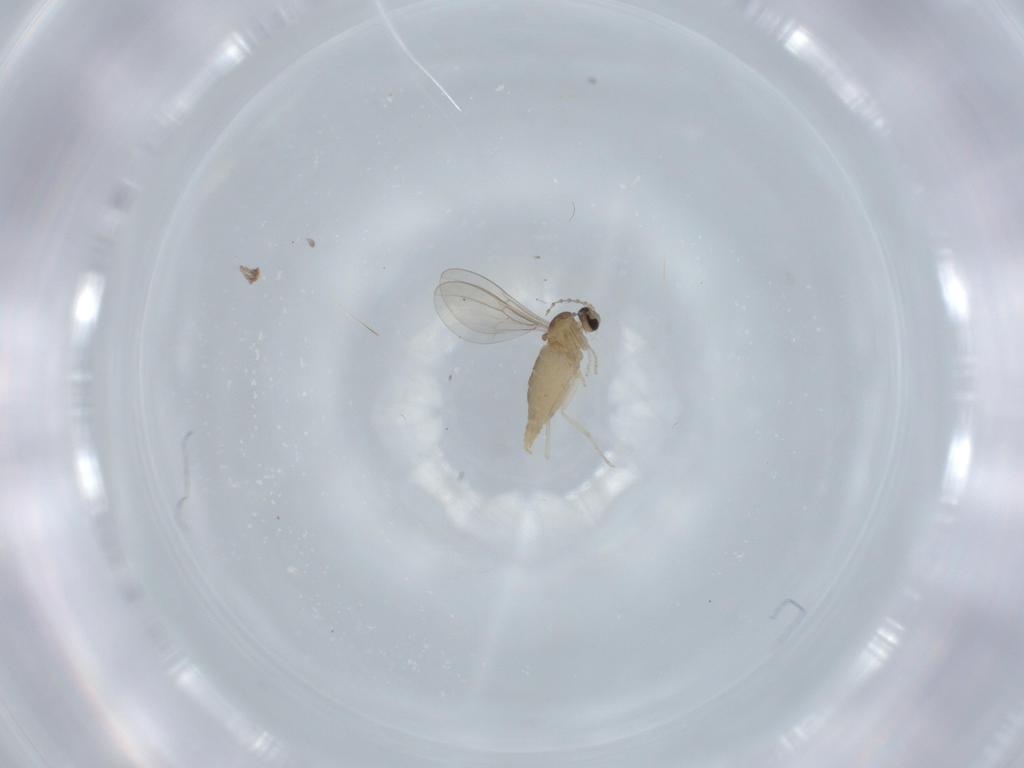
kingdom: Animalia
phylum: Arthropoda
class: Insecta
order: Diptera
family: Cecidomyiidae
